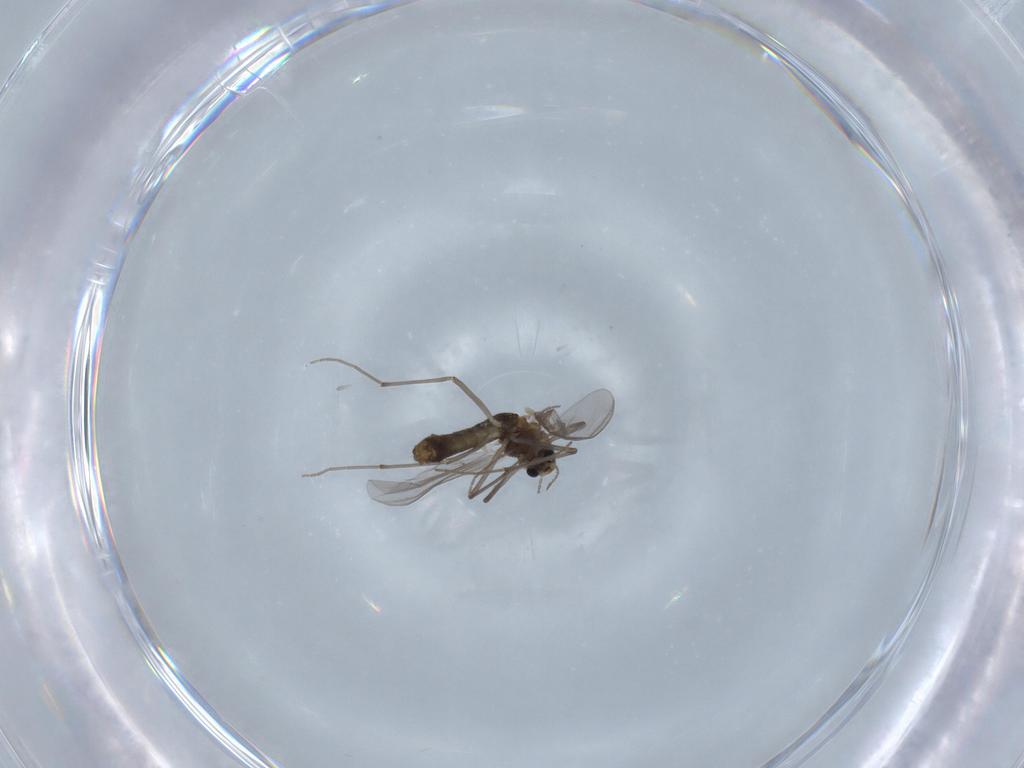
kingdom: Animalia
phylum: Arthropoda
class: Insecta
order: Diptera
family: Chironomidae
